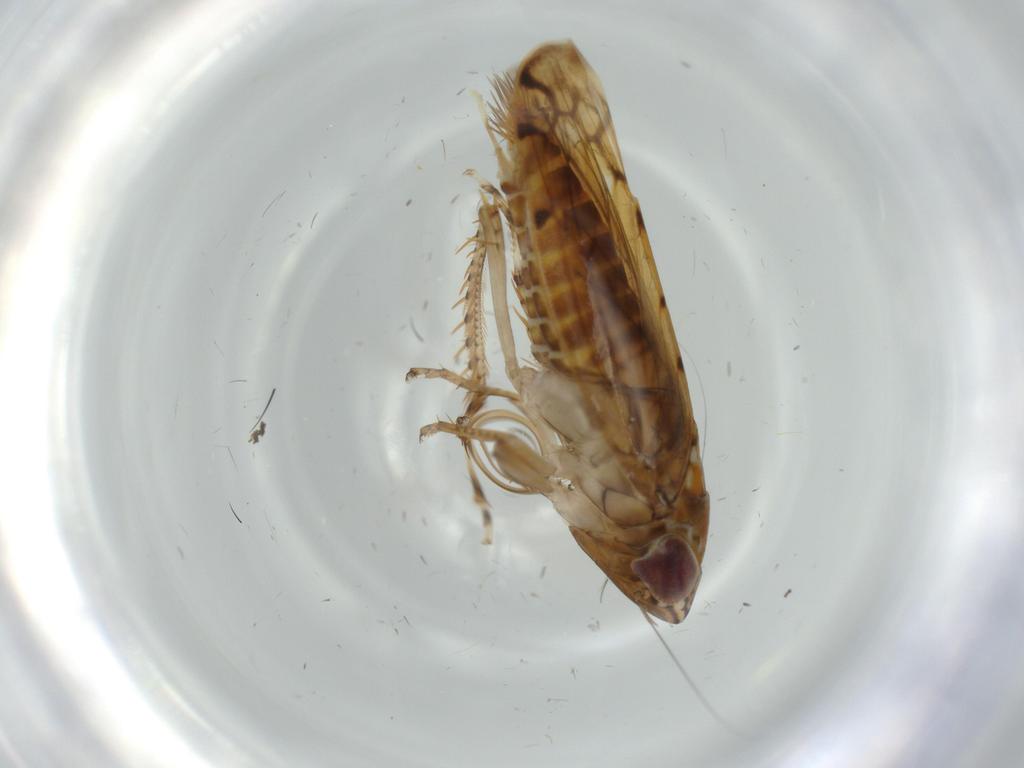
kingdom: Animalia
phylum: Arthropoda
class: Insecta
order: Hemiptera
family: Cicadellidae
